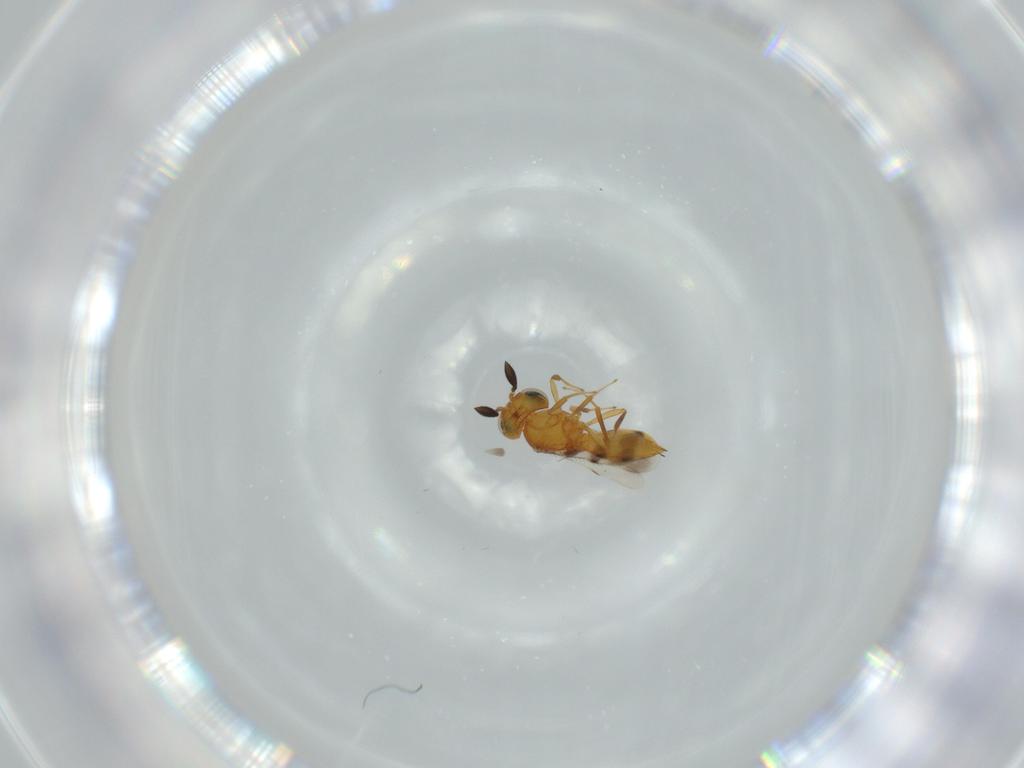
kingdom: Animalia
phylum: Arthropoda
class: Insecta
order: Hymenoptera
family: Scelionidae
